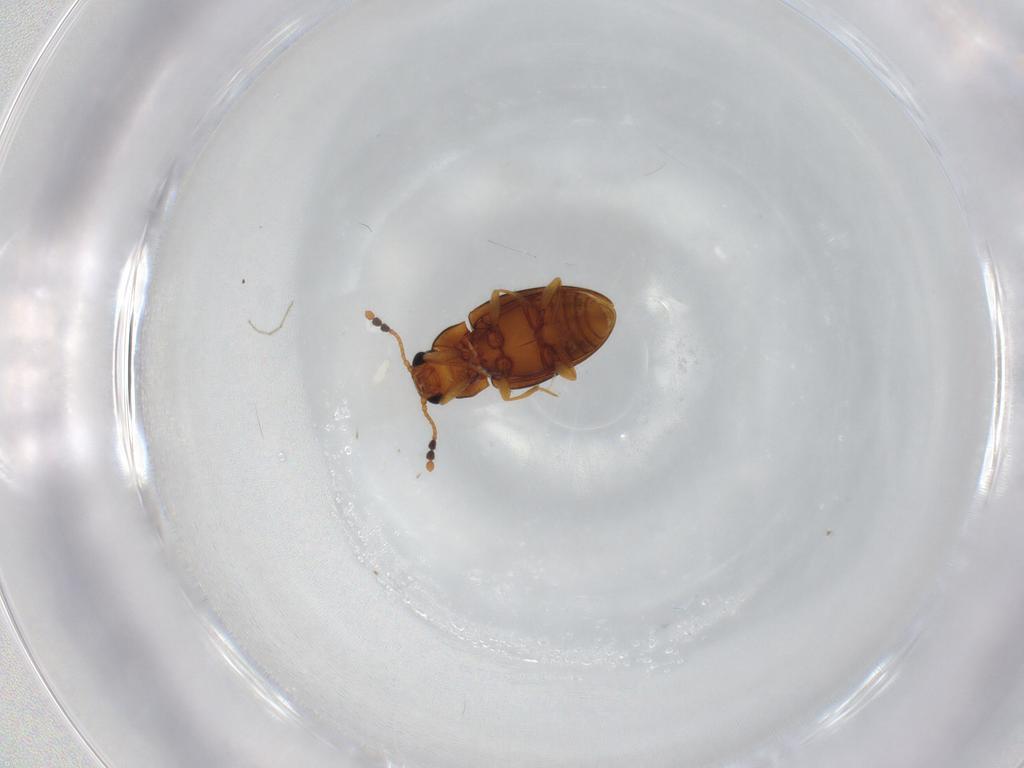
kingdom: Animalia
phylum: Arthropoda
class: Insecta
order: Coleoptera
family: Erotylidae
